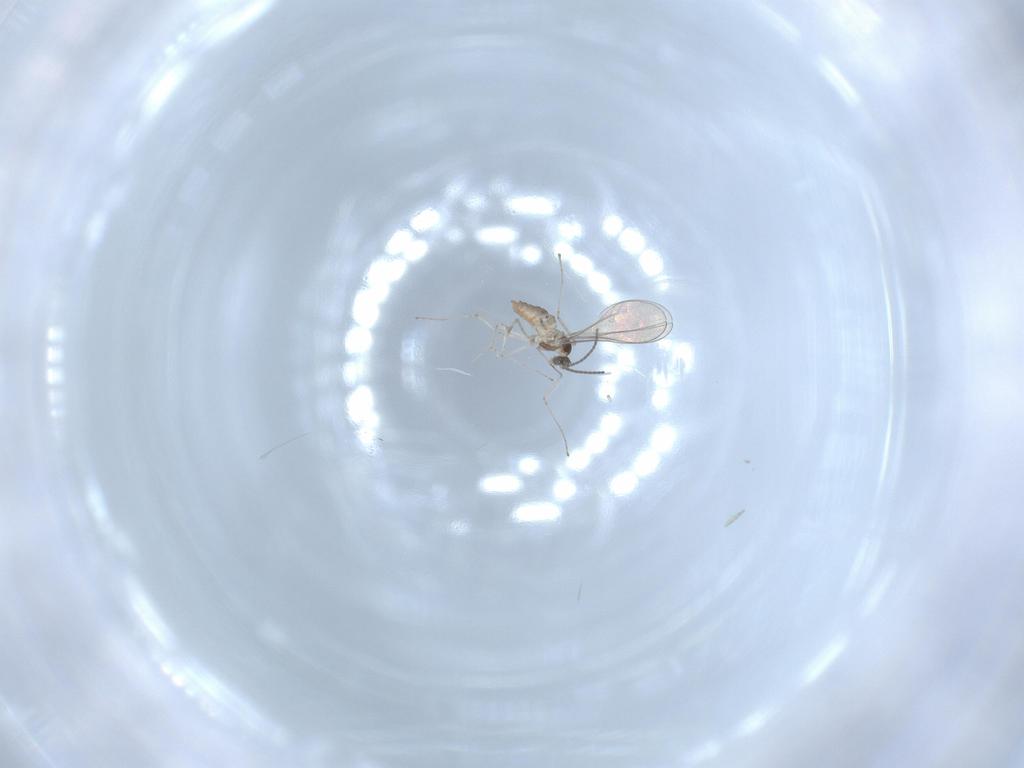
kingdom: Animalia
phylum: Arthropoda
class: Insecta
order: Diptera
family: Cecidomyiidae
